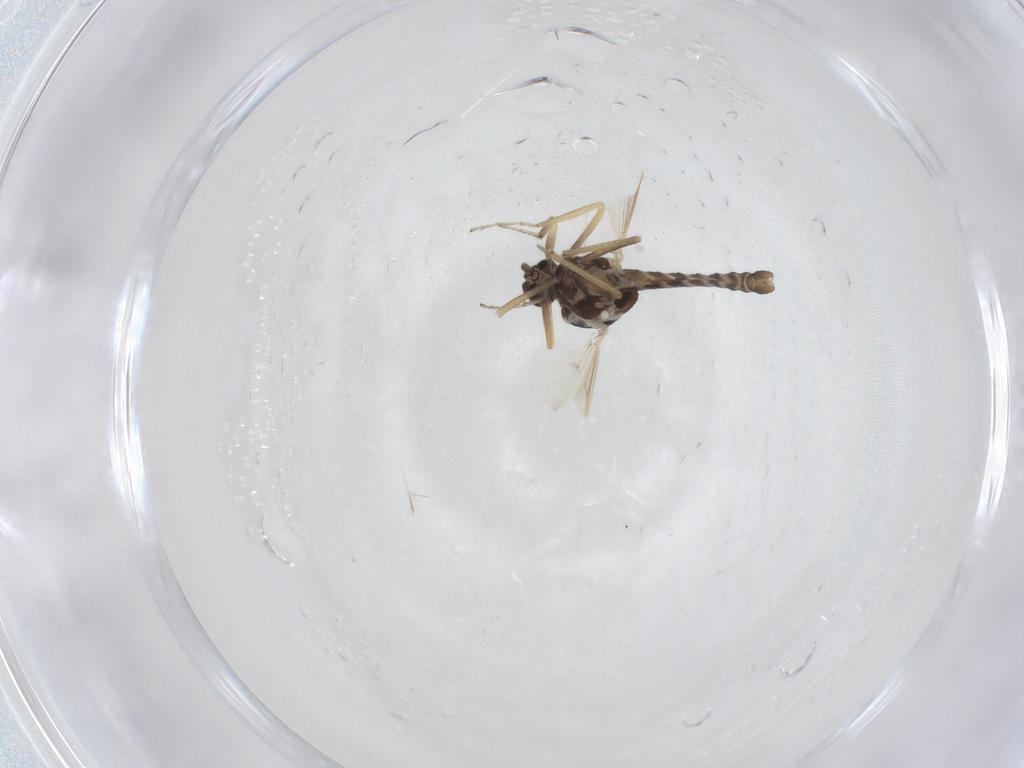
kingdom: Animalia
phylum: Arthropoda
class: Insecta
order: Diptera
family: Ceratopogonidae
